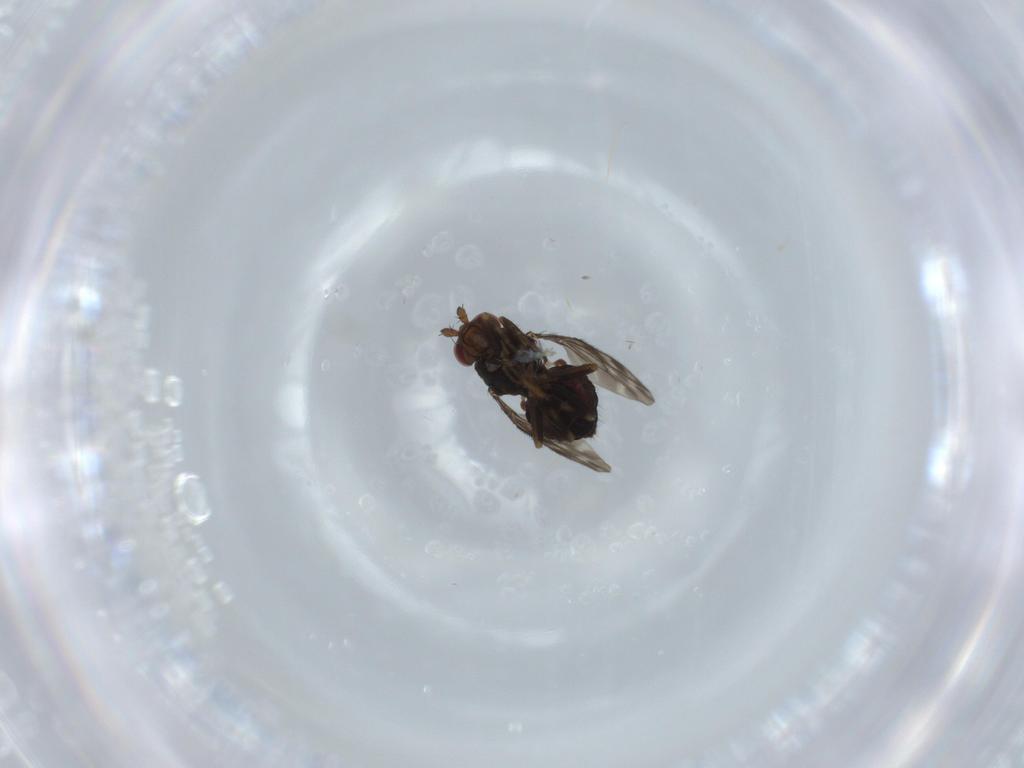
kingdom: Animalia
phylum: Arthropoda
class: Insecta
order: Diptera
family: Sphaeroceridae
